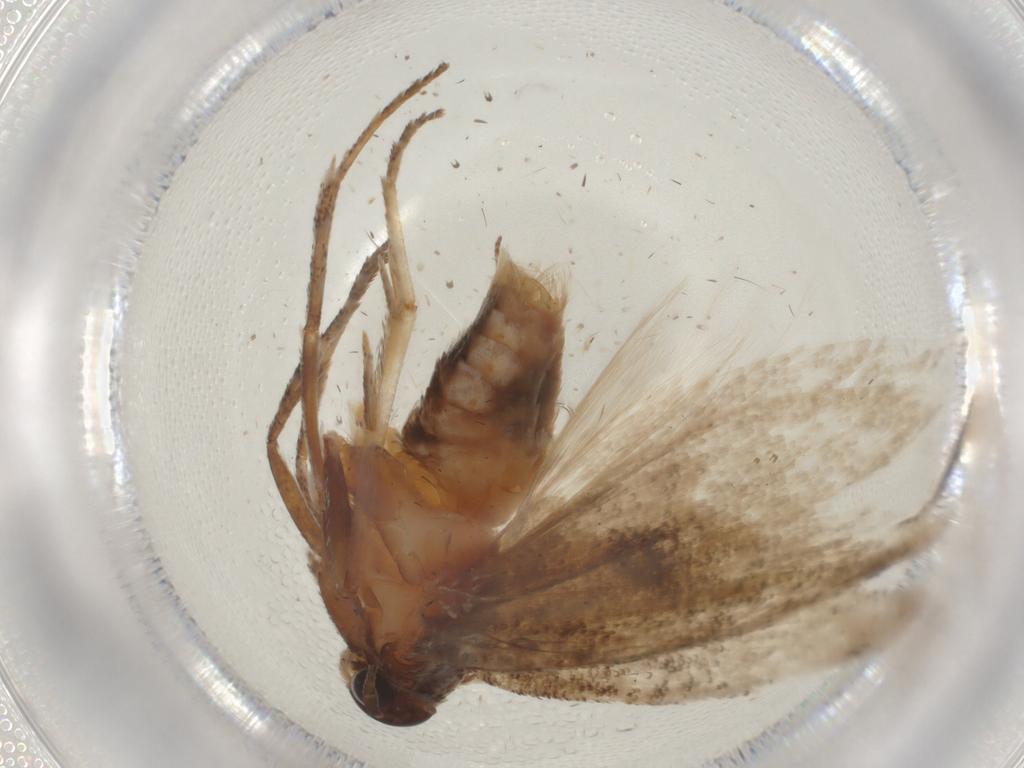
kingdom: Animalia
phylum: Arthropoda
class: Insecta
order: Lepidoptera
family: Cosmopterigidae
